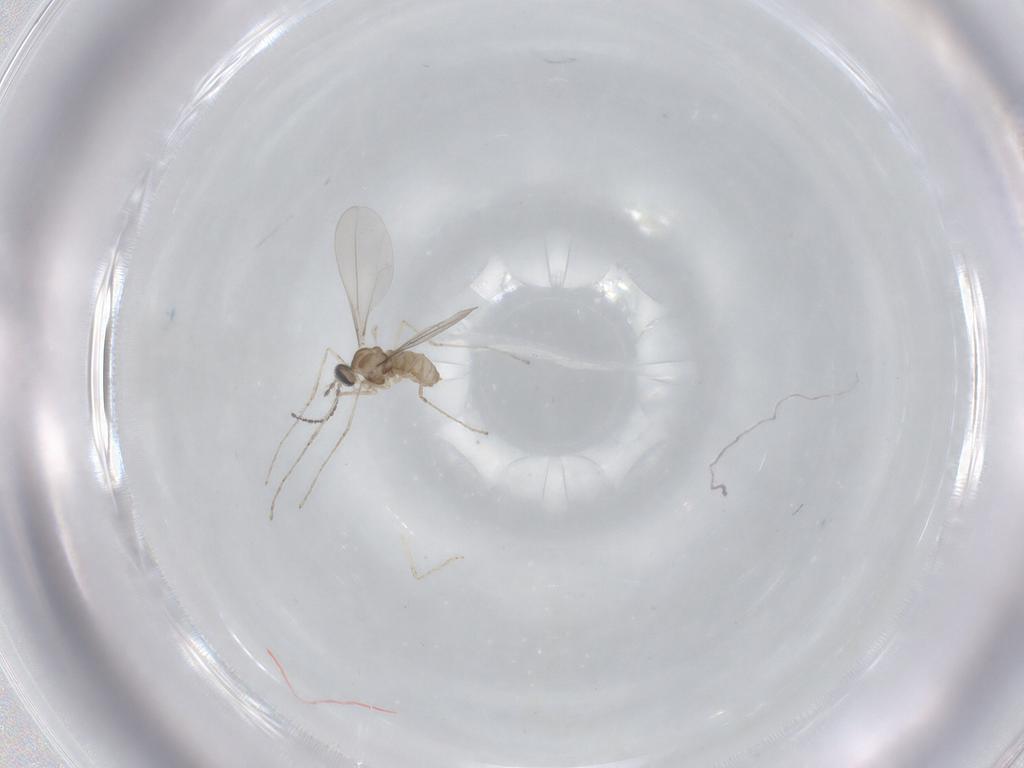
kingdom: Animalia
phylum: Arthropoda
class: Insecta
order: Diptera
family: Cecidomyiidae
